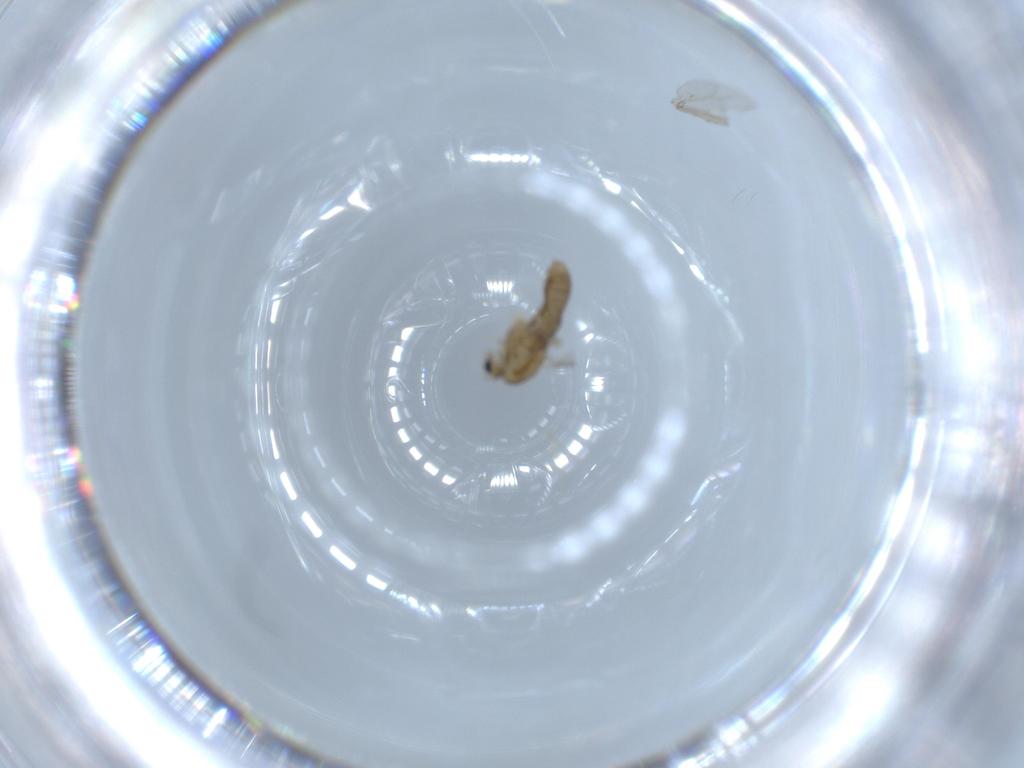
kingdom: Animalia
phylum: Arthropoda
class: Insecta
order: Diptera
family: Chironomidae
